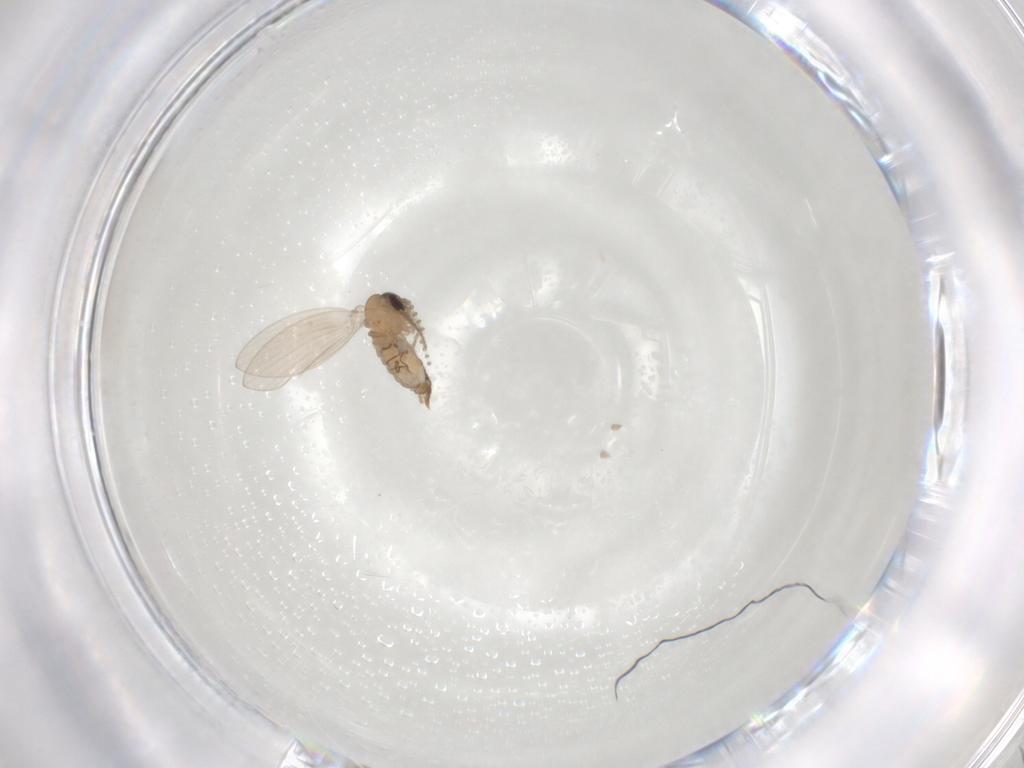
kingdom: Animalia
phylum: Arthropoda
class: Insecta
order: Diptera
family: Psychodidae
